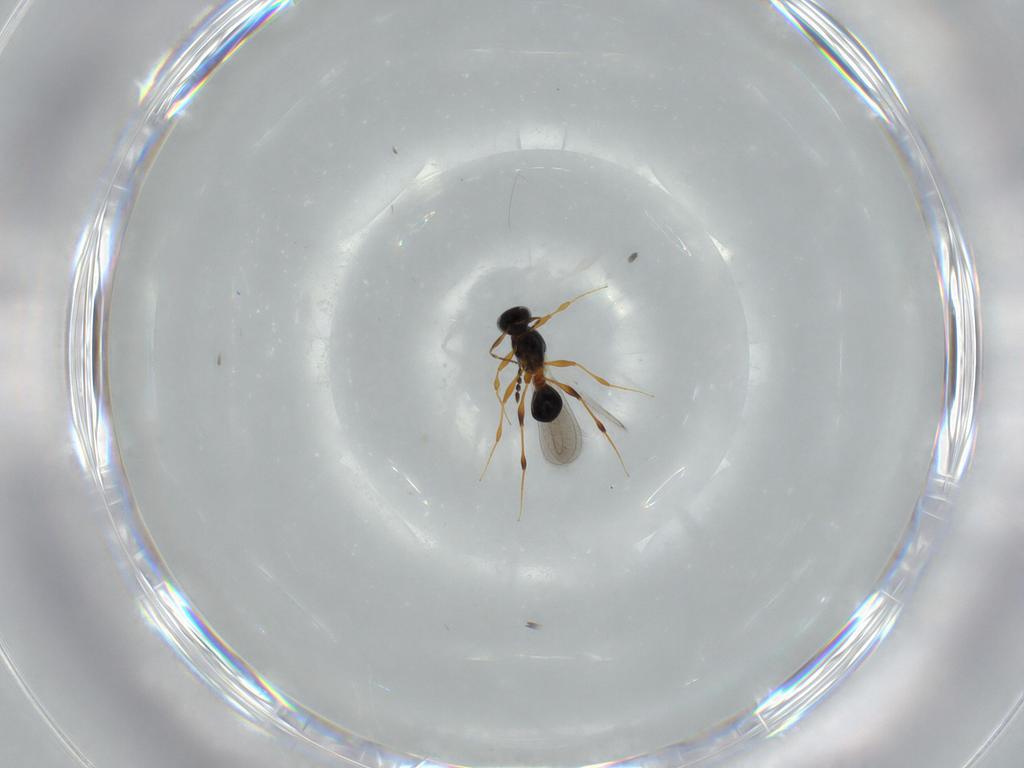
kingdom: Animalia
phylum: Arthropoda
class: Insecta
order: Hymenoptera
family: Platygastridae
